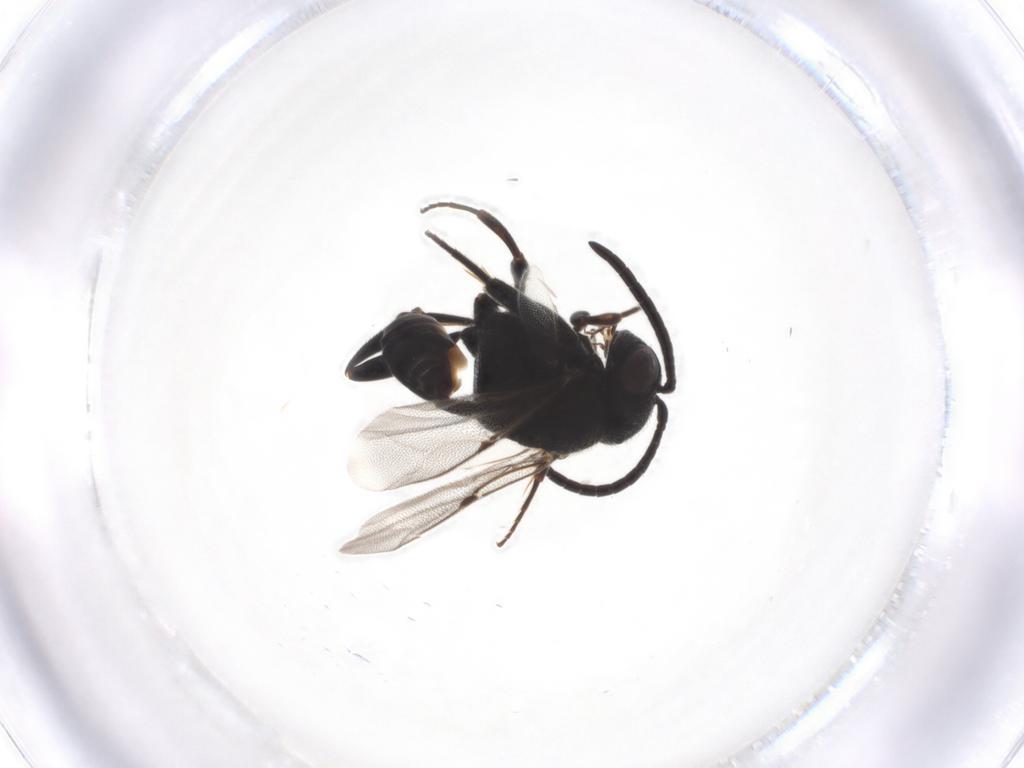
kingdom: Animalia
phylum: Arthropoda
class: Insecta
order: Hymenoptera
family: Evaniidae
